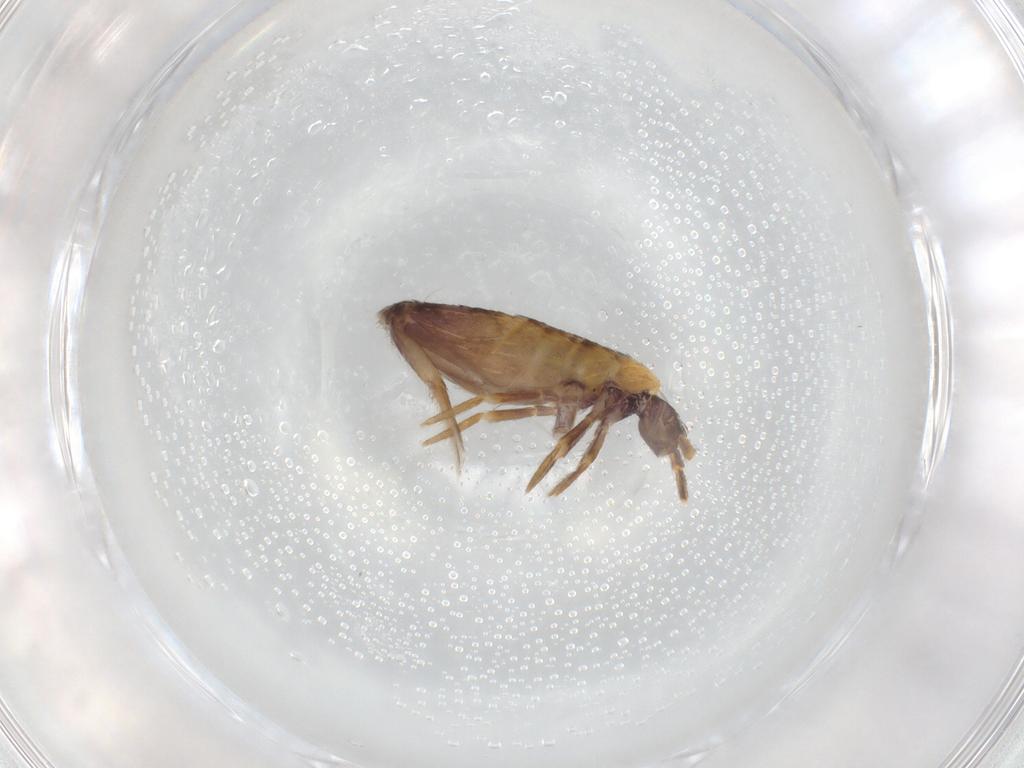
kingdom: Animalia
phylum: Arthropoda
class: Collembola
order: Entomobryomorpha
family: Entomobryidae
